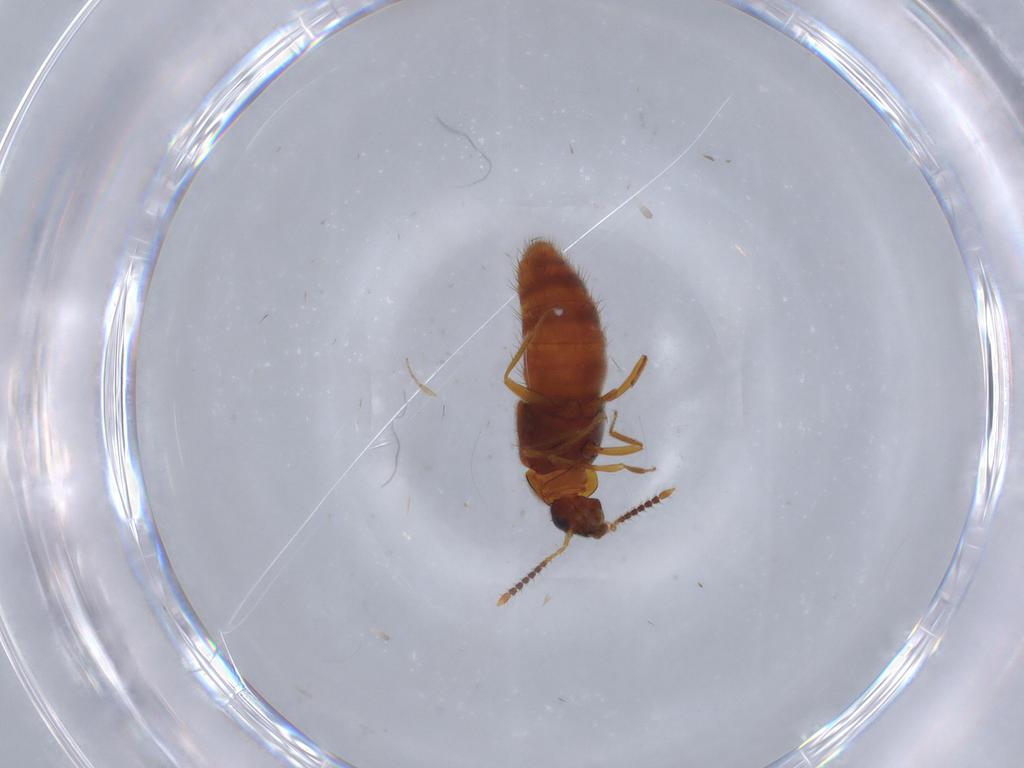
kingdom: Animalia
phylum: Arthropoda
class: Insecta
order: Coleoptera
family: Staphylinidae
